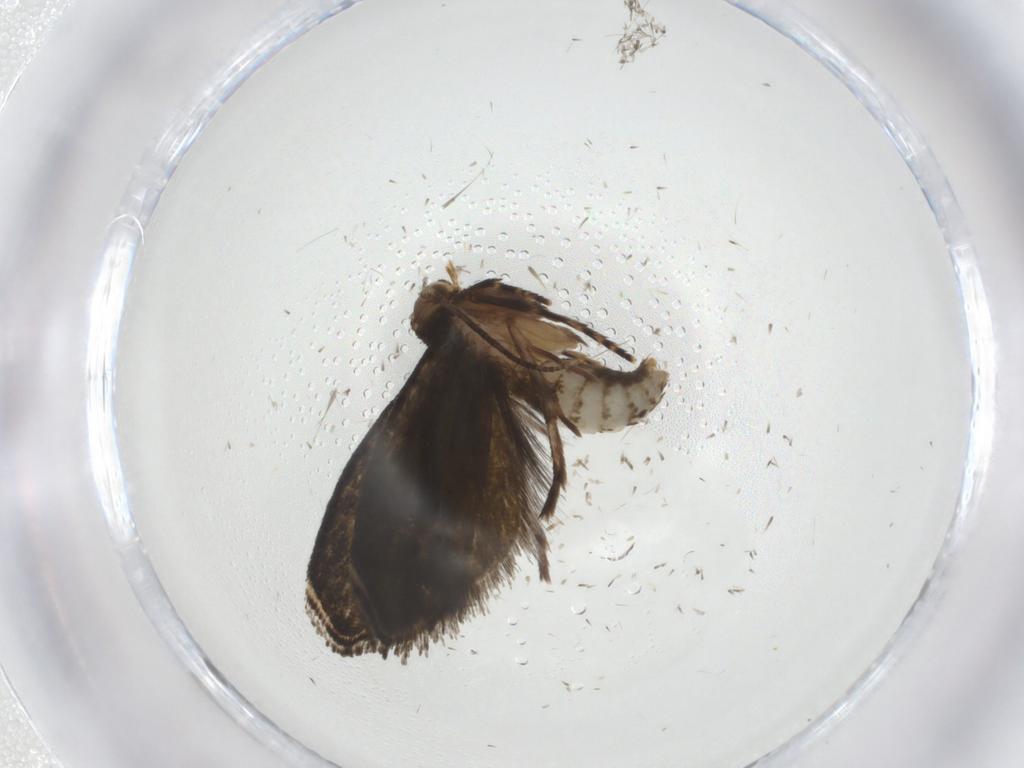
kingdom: Animalia
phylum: Arthropoda
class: Insecta
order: Lepidoptera
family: Tineidae
